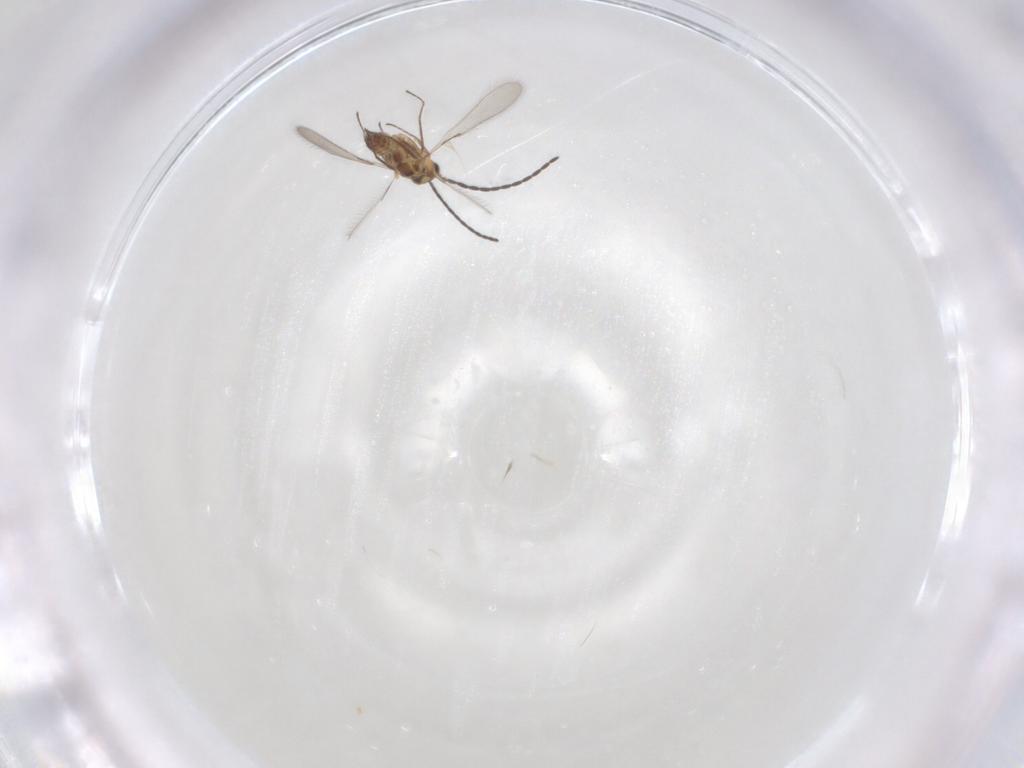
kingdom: Animalia
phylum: Arthropoda
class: Insecta
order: Hymenoptera
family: Mymaridae
